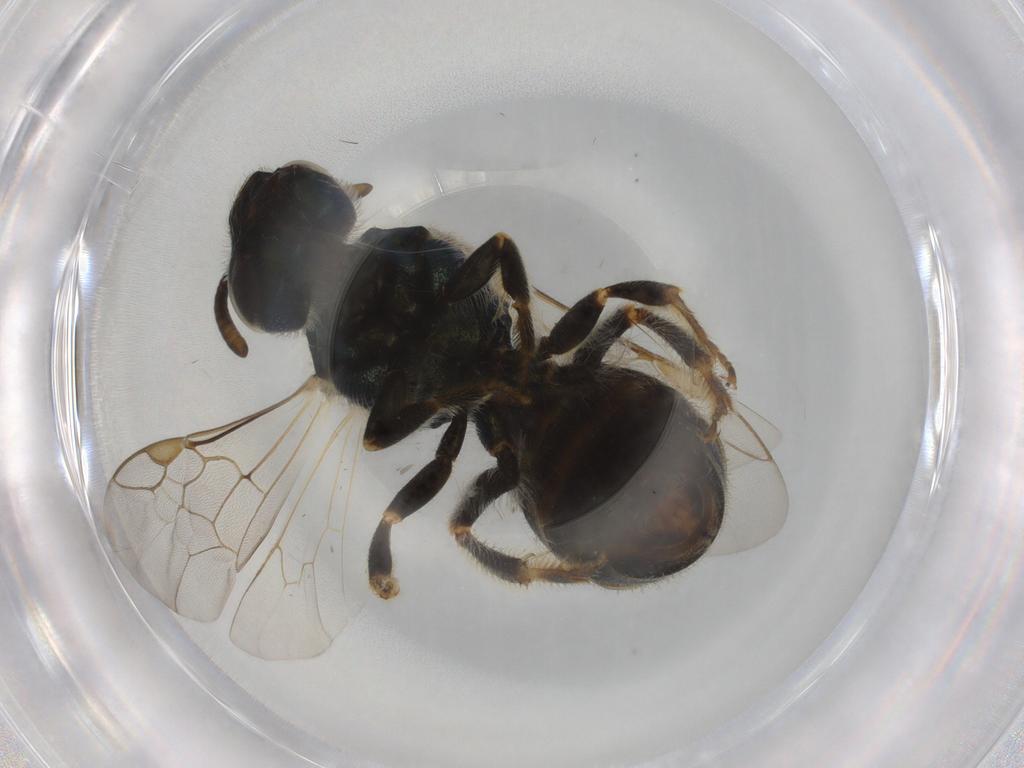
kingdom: Animalia
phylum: Arthropoda
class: Insecta
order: Hymenoptera
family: Halictidae
